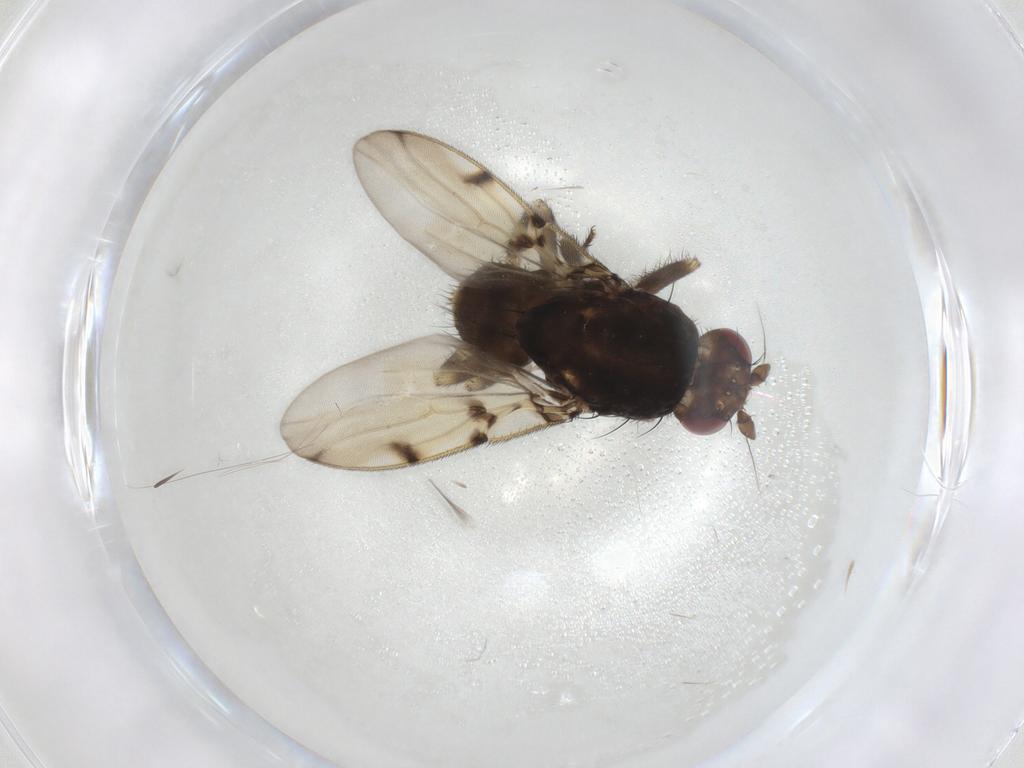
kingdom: Animalia
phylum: Arthropoda
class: Insecta
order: Diptera
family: Sphaeroceridae
